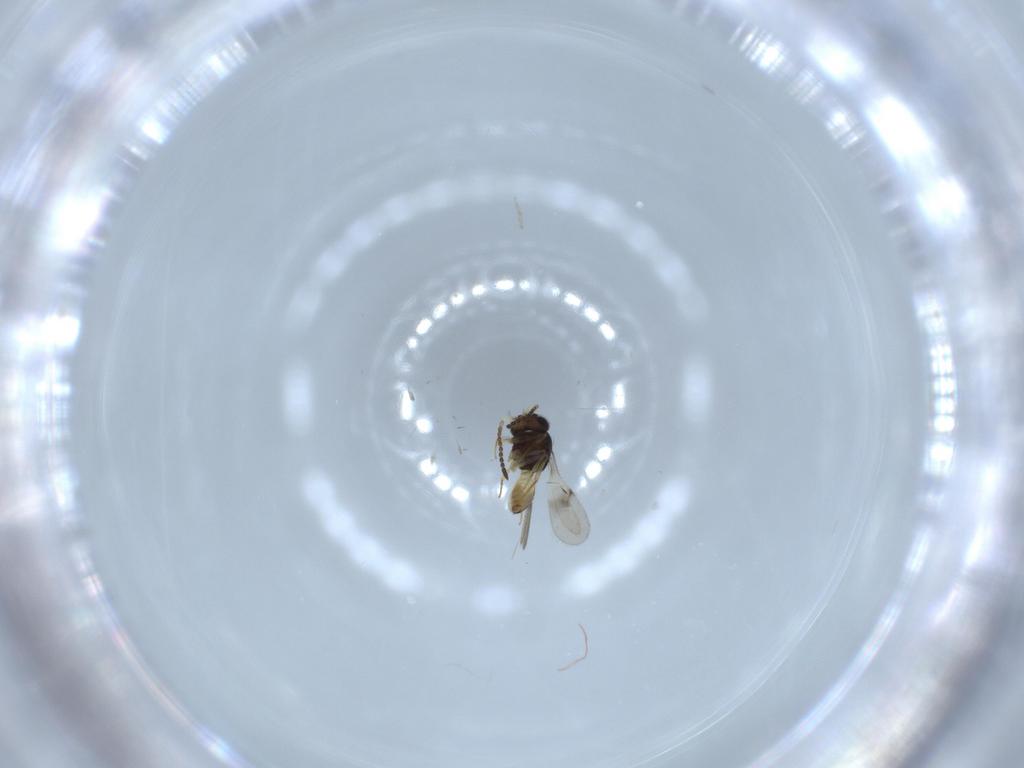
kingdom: Animalia
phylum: Arthropoda
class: Insecta
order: Hymenoptera
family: Scelionidae
